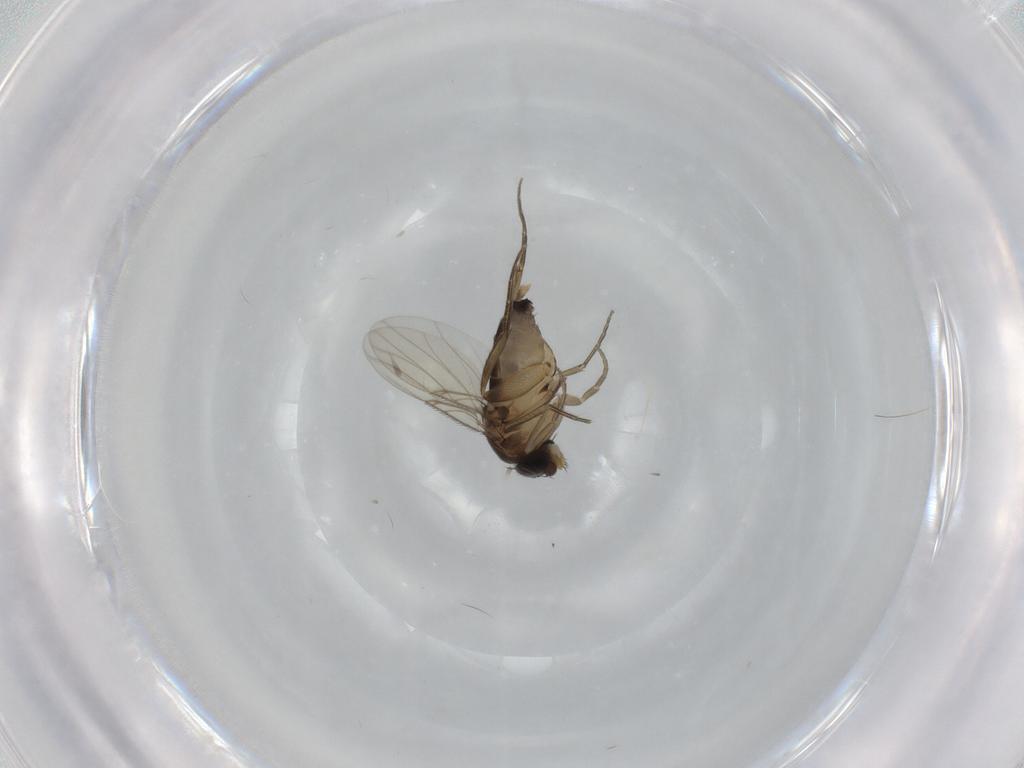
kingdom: Animalia
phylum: Arthropoda
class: Insecta
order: Diptera
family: Phoridae
